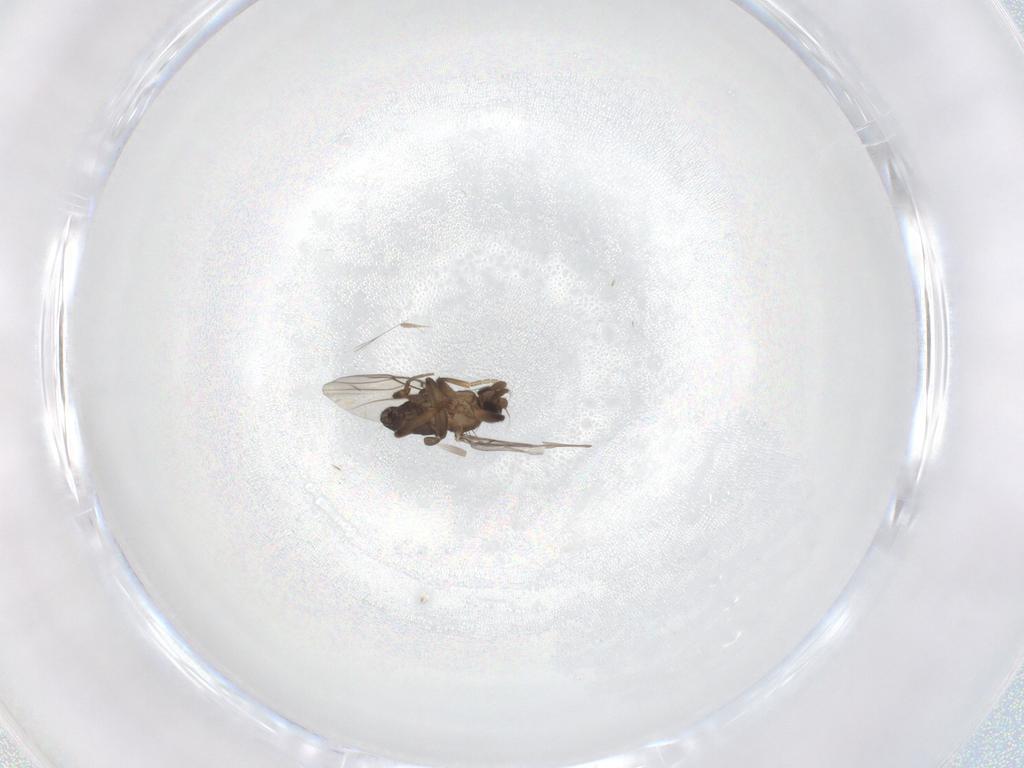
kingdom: Animalia
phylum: Arthropoda
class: Insecta
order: Diptera
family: Phoridae
